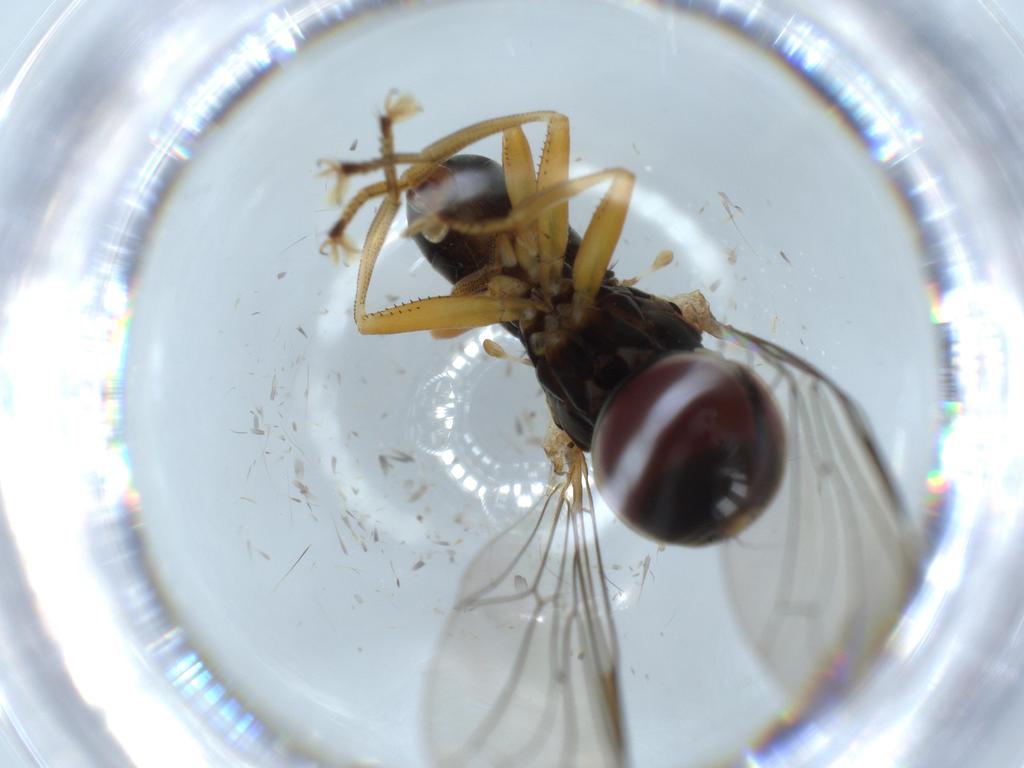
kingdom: Animalia
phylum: Arthropoda
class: Insecta
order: Diptera
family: Pipunculidae
